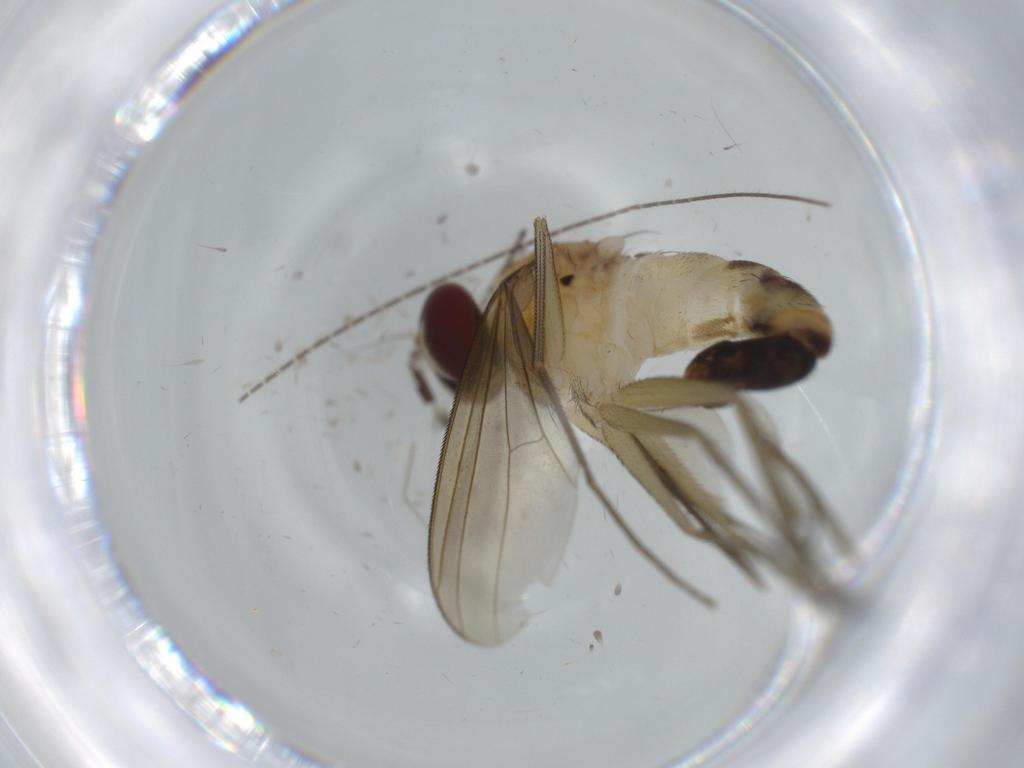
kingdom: Animalia
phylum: Arthropoda
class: Insecta
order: Diptera
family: Dolichopodidae
